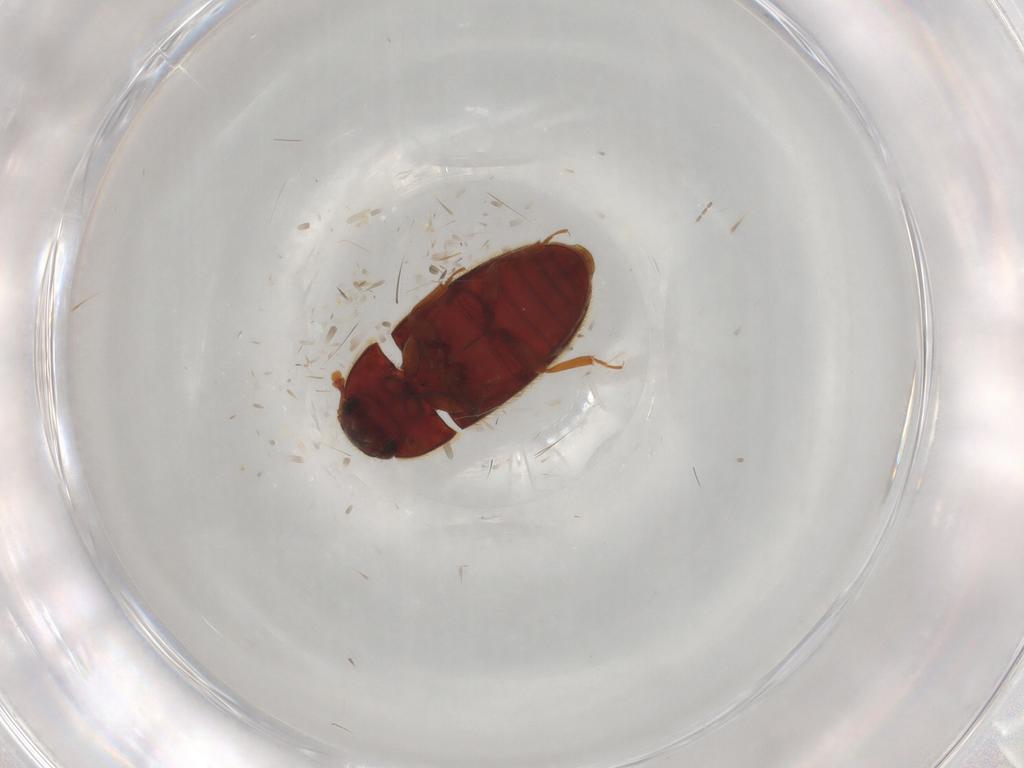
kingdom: Animalia
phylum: Arthropoda
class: Insecta
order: Coleoptera
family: Biphyllidae
